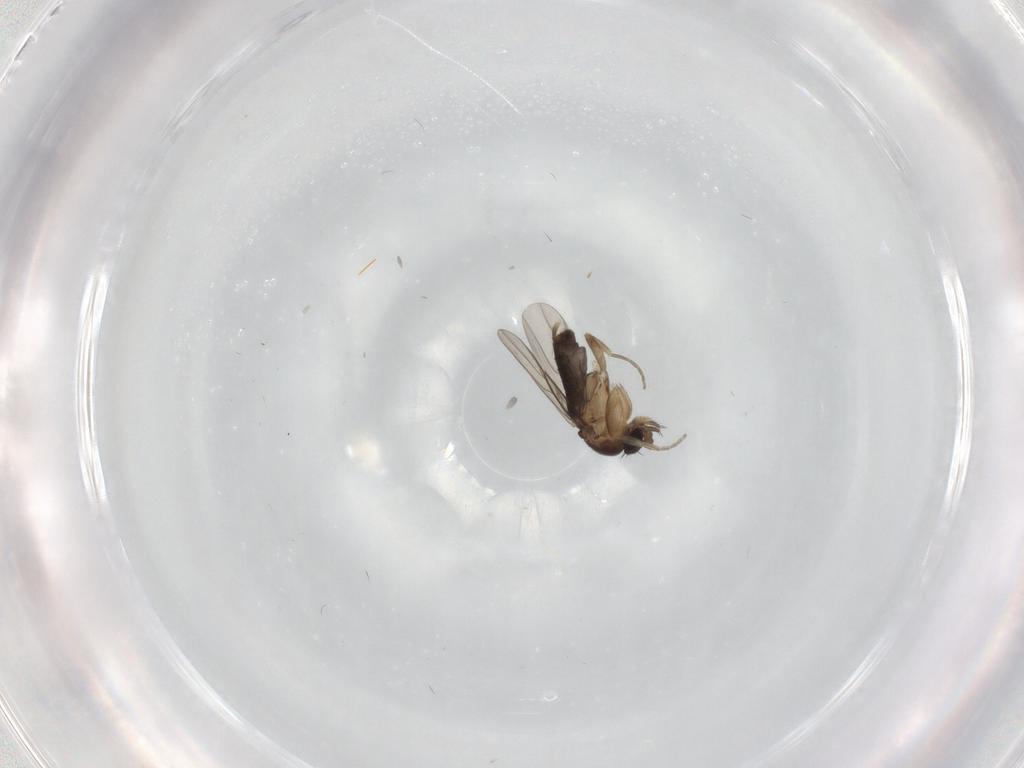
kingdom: Animalia
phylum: Arthropoda
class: Insecta
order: Diptera
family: Phoridae
